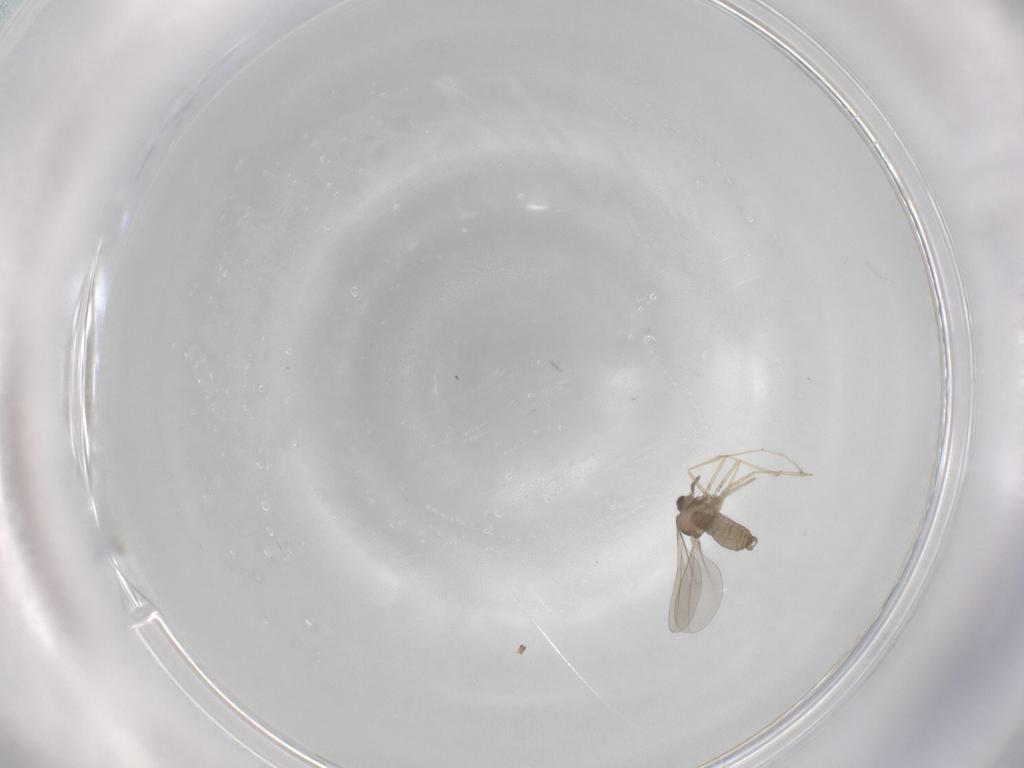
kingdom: Animalia
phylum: Arthropoda
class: Insecta
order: Diptera
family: Cecidomyiidae
